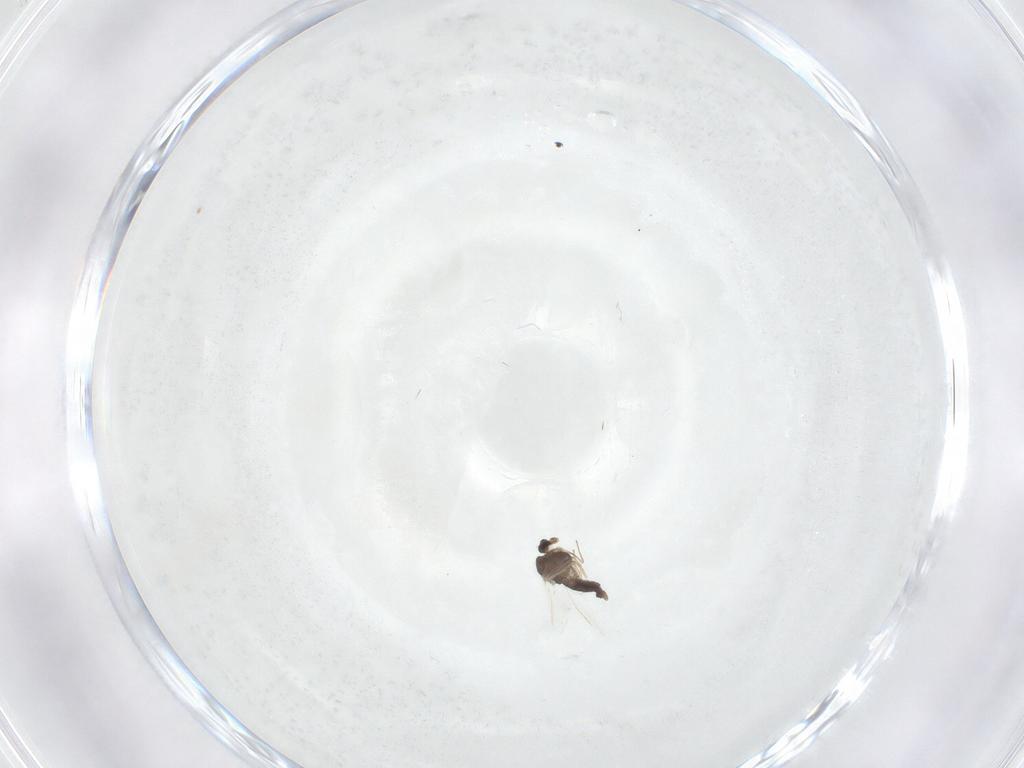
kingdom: Animalia
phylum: Arthropoda
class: Insecta
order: Diptera
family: Chironomidae
